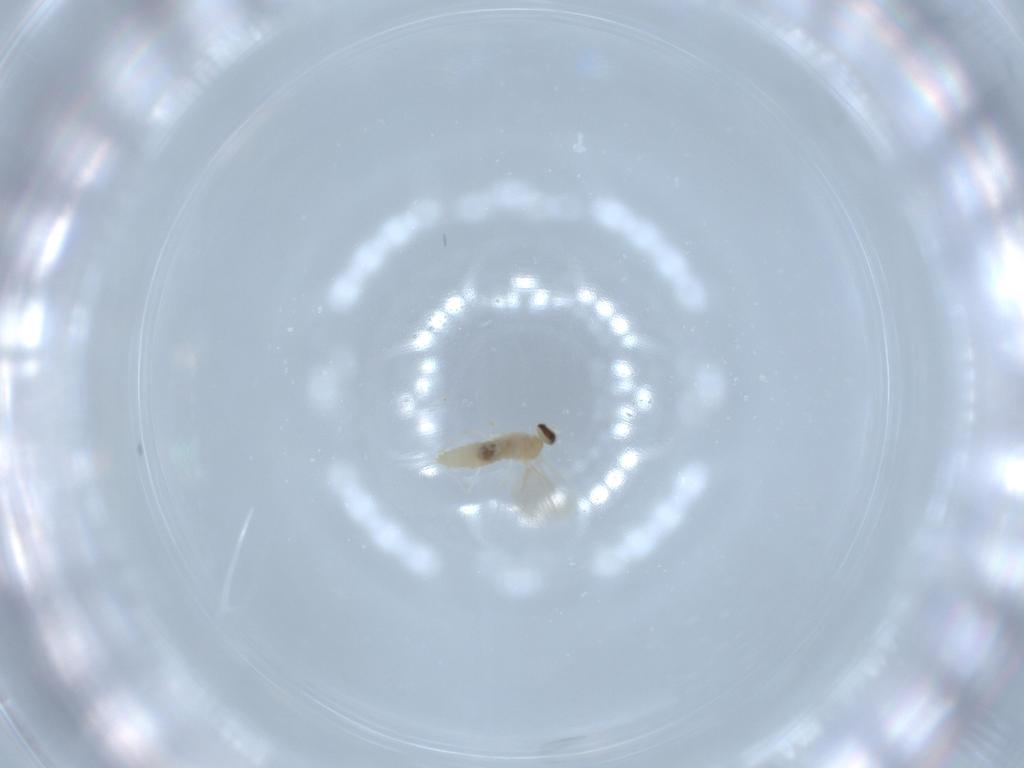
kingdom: Animalia
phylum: Arthropoda
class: Insecta
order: Diptera
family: Cecidomyiidae
